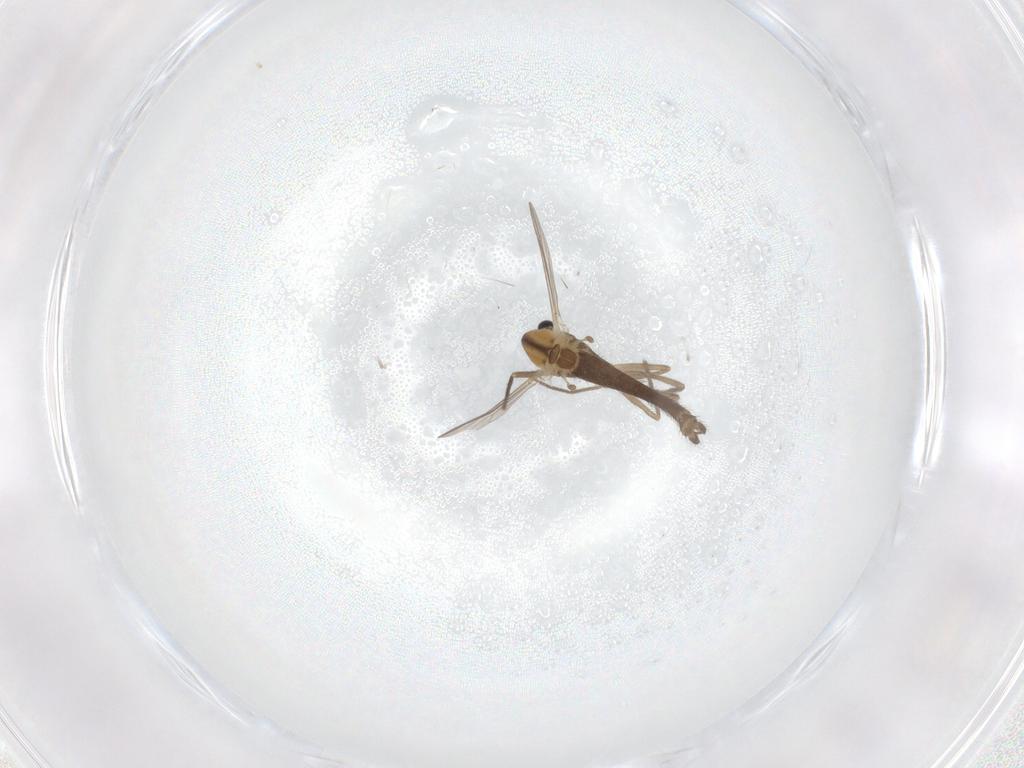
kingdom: Animalia
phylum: Arthropoda
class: Insecta
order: Diptera
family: Chironomidae
